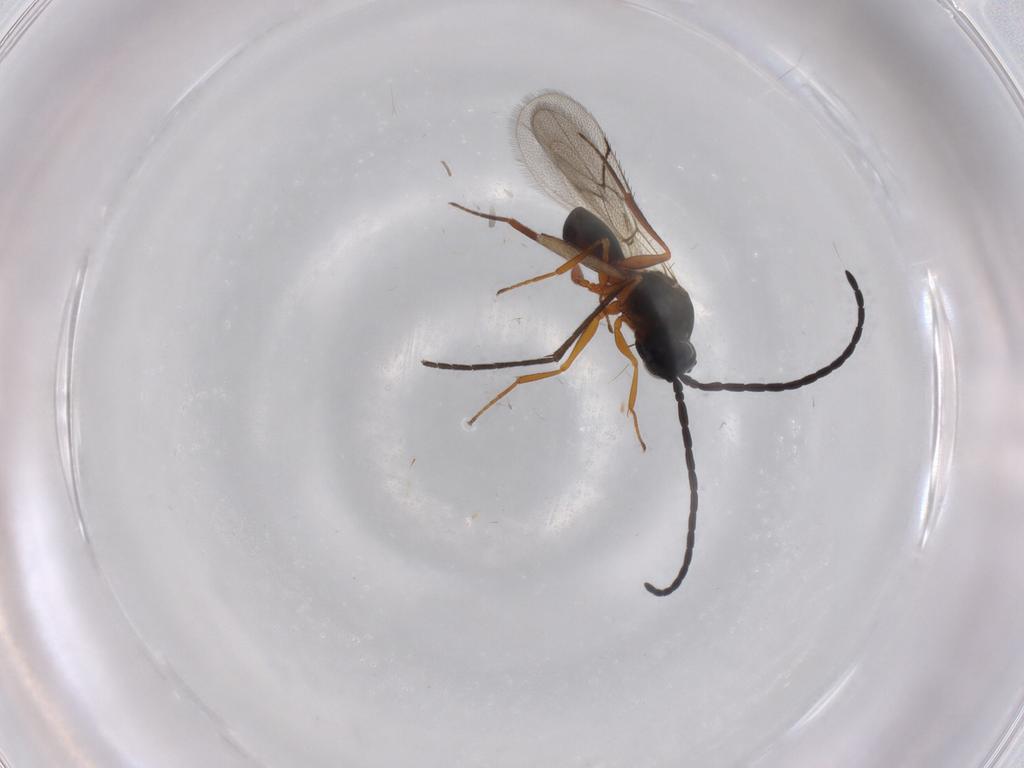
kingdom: Animalia
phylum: Arthropoda
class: Insecta
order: Hymenoptera
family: Figitidae
